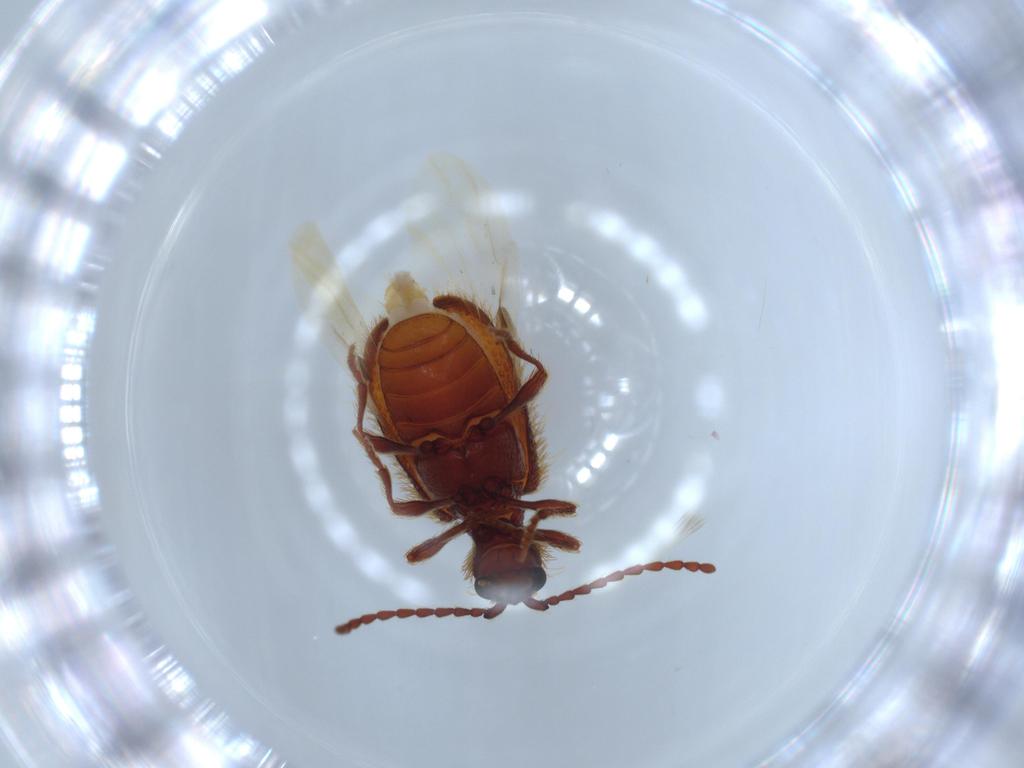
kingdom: Animalia
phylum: Arthropoda
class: Insecta
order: Coleoptera
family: Ptinidae
